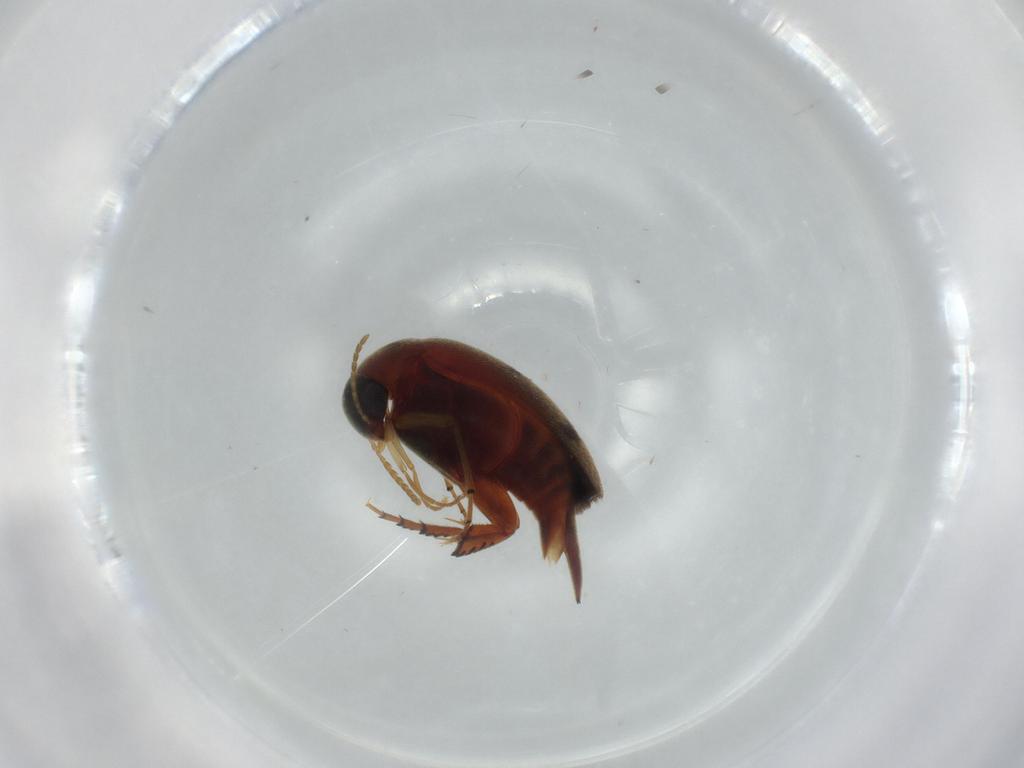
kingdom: Animalia
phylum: Arthropoda
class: Insecta
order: Coleoptera
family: Mordellidae
